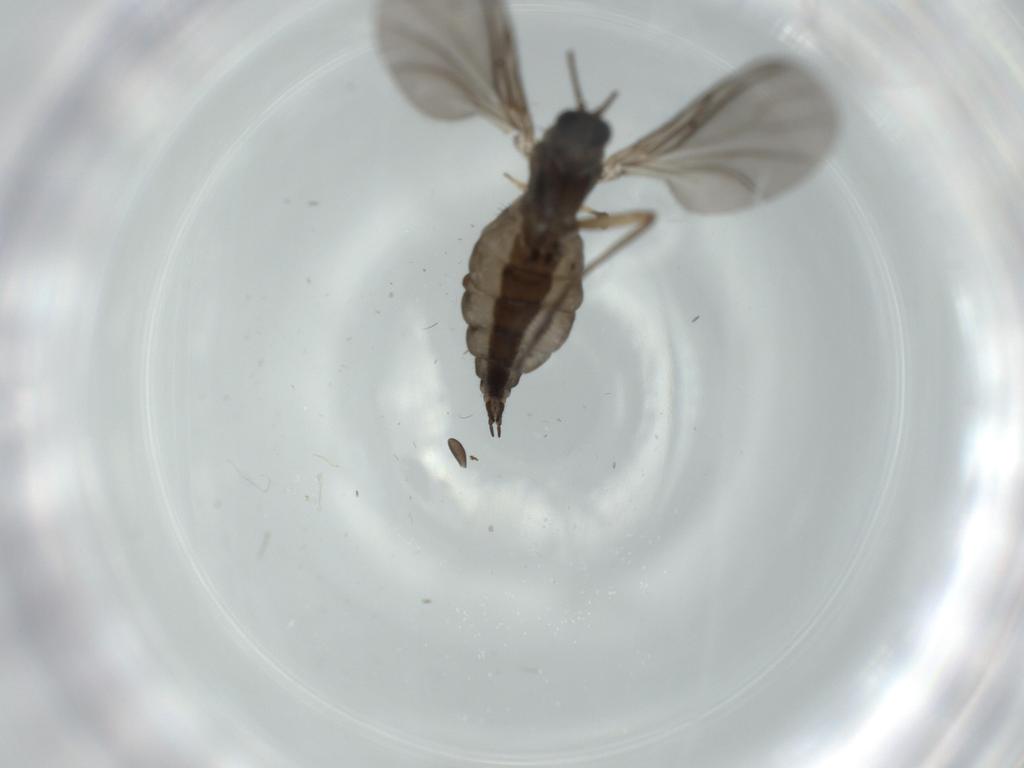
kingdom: Animalia
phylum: Arthropoda
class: Insecta
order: Diptera
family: Sciaridae
